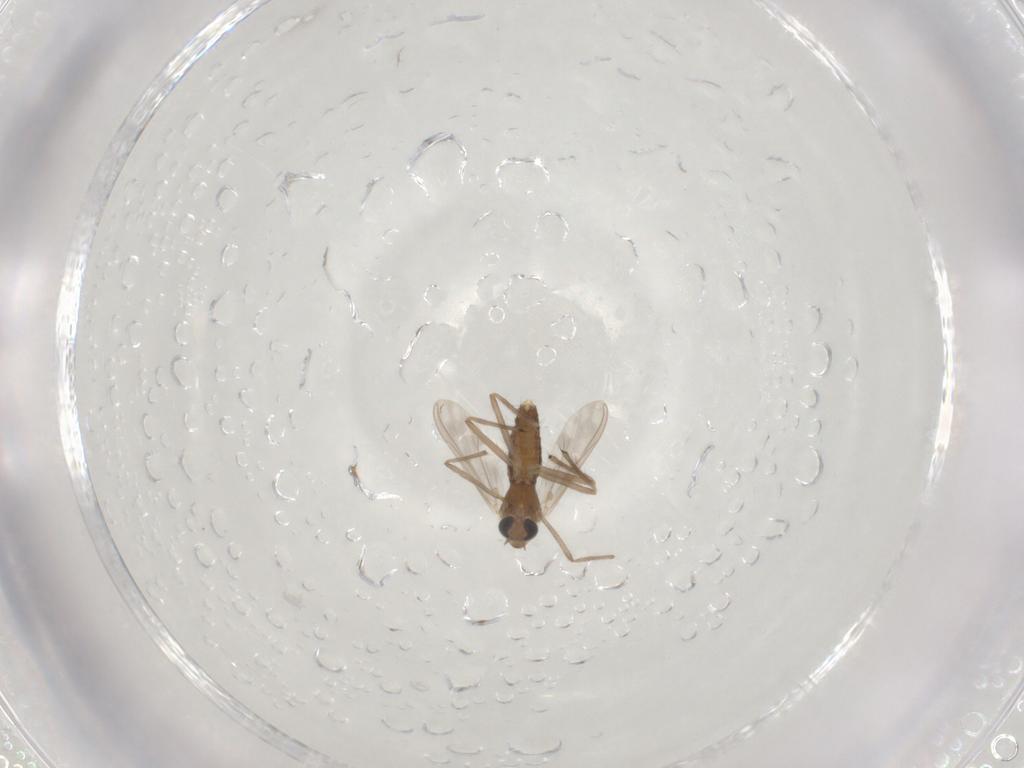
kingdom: Animalia
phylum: Arthropoda
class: Insecta
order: Diptera
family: Chironomidae
